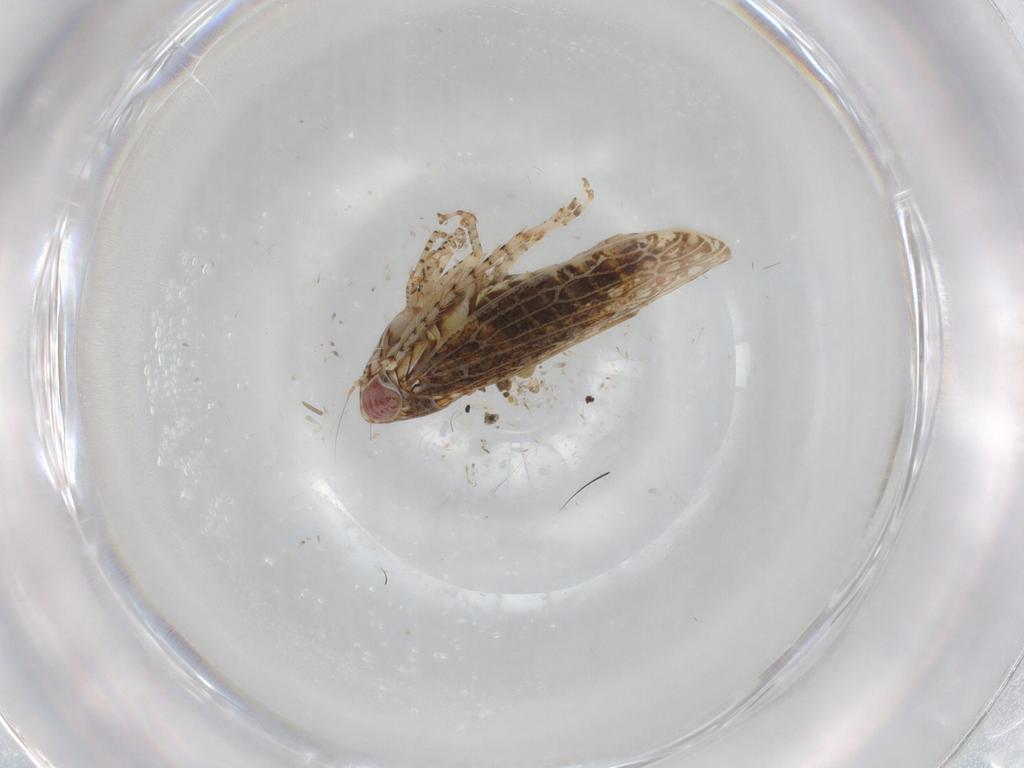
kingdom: Animalia
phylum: Arthropoda
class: Insecta
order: Hemiptera
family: Cicadellidae
